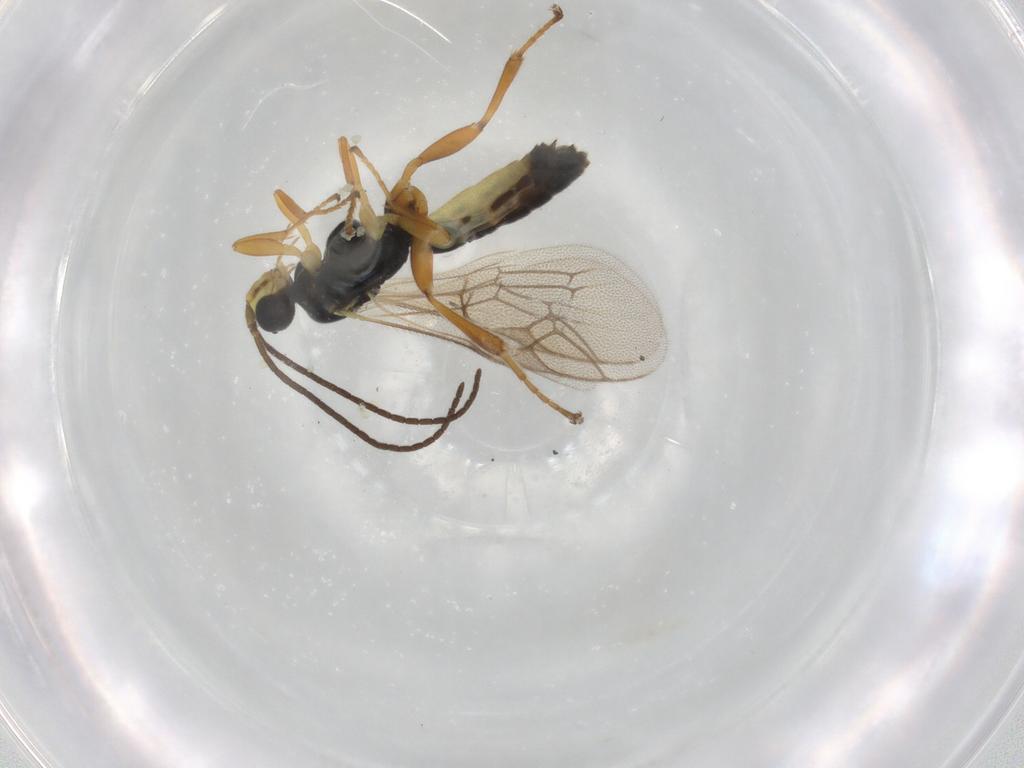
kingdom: Animalia
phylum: Arthropoda
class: Insecta
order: Hymenoptera
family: Ichneumonidae
